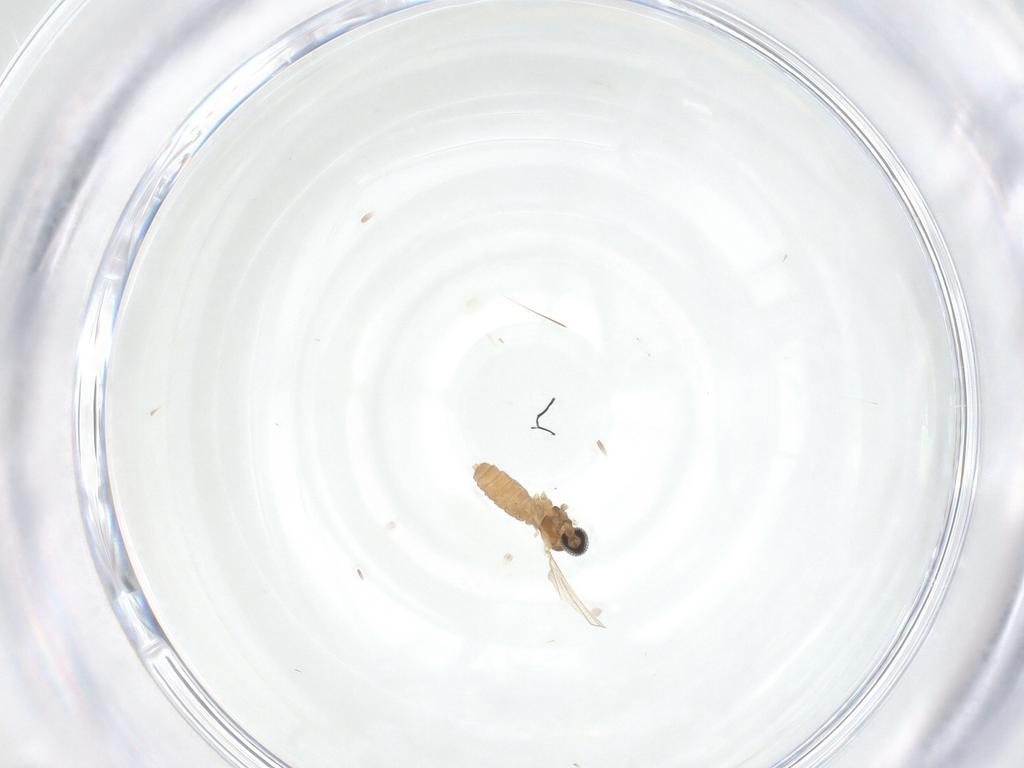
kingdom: Animalia
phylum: Arthropoda
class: Insecta
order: Diptera
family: Cecidomyiidae
